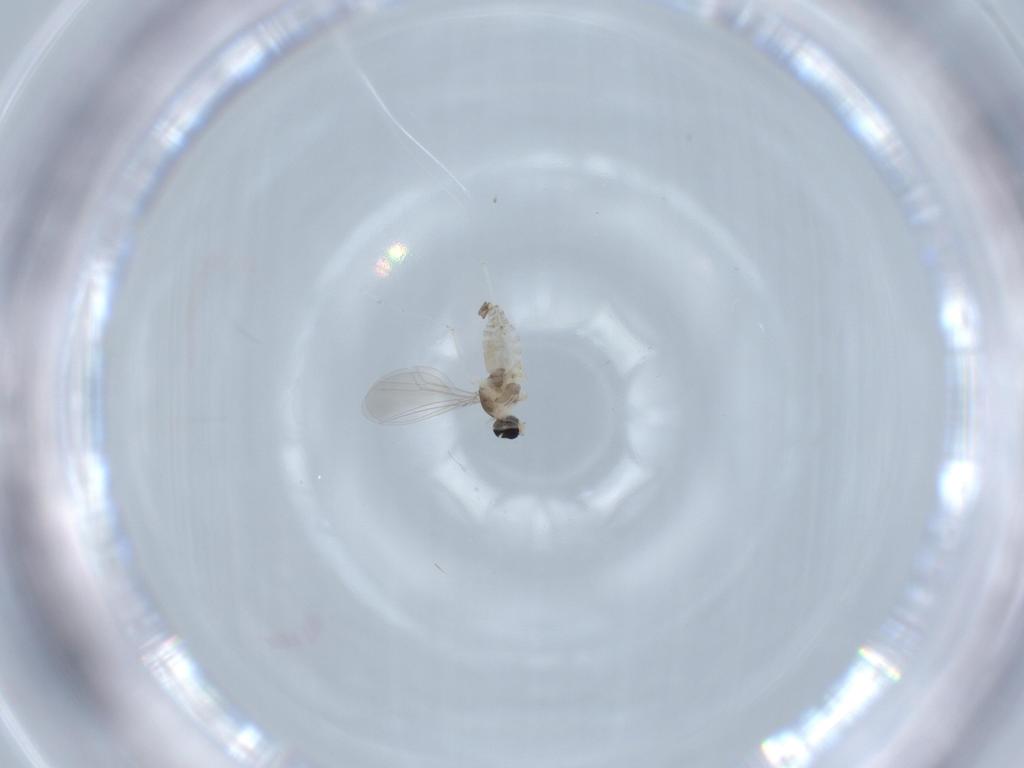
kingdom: Animalia
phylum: Arthropoda
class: Insecta
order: Diptera
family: Cecidomyiidae
